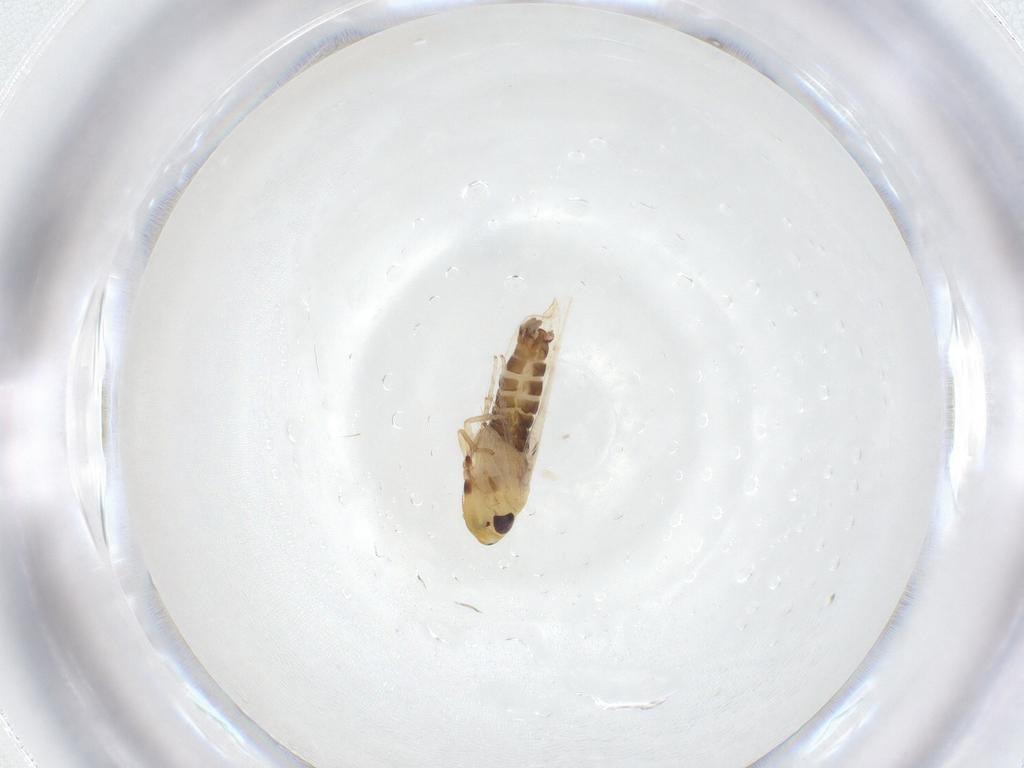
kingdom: Animalia
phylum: Arthropoda
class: Insecta
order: Hemiptera
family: Cicadellidae
